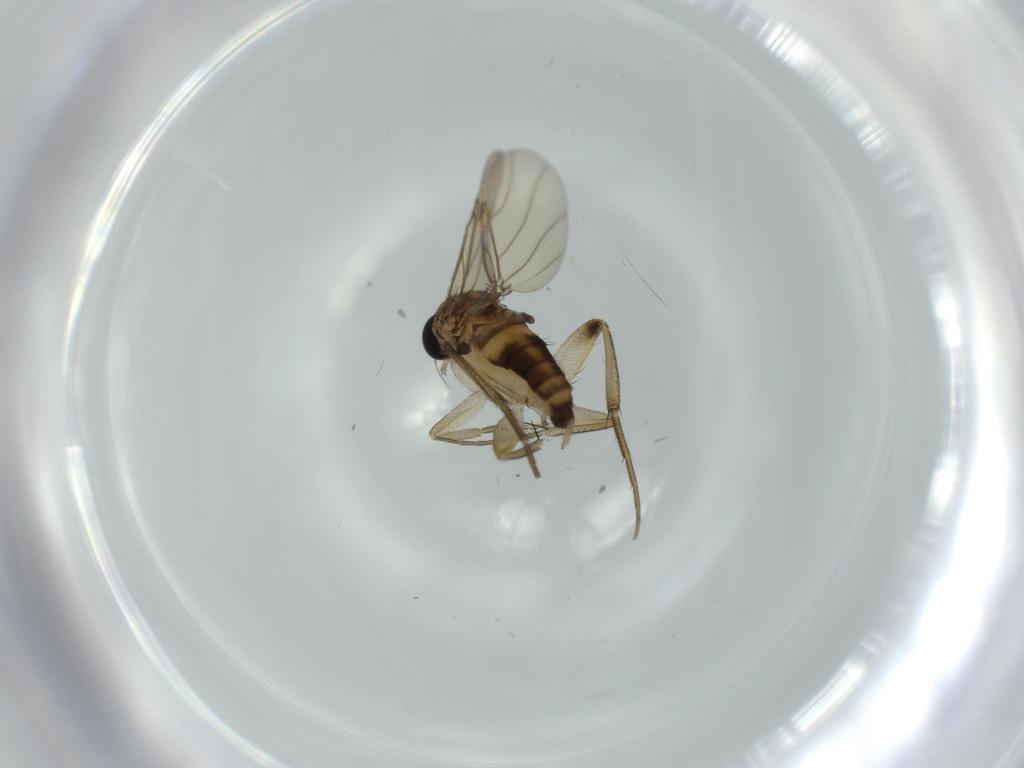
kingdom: Animalia
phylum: Arthropoda
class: Insecta
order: Diptera
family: Phoridae
